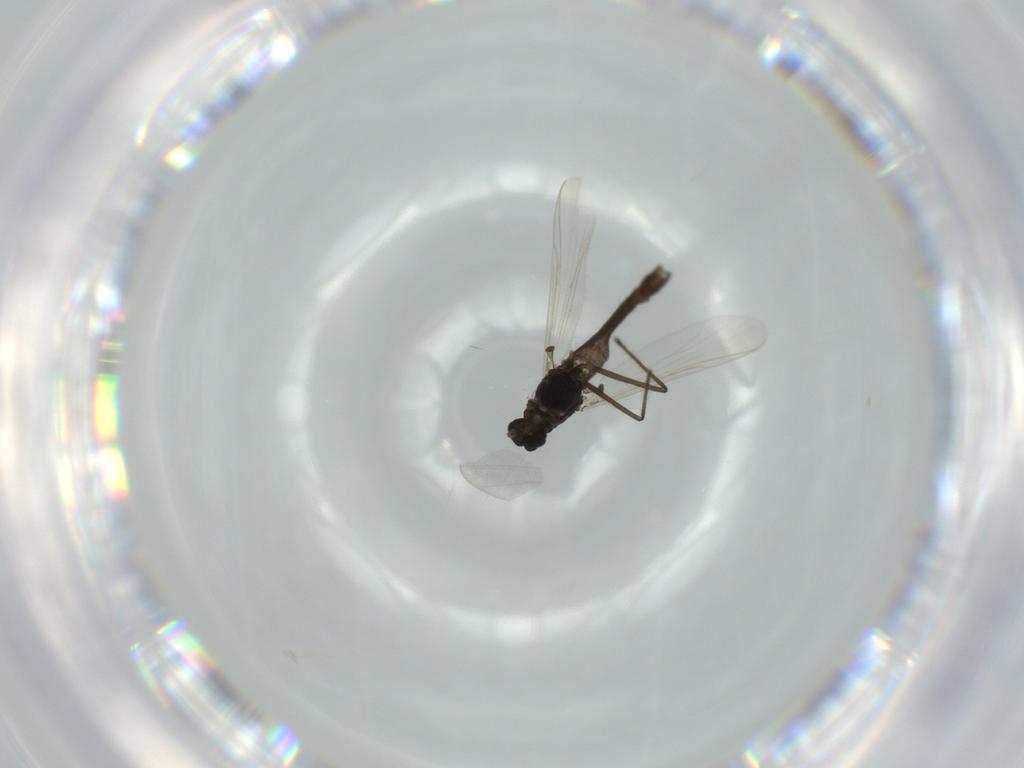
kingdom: Animalia
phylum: Arthropoda
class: Insecta
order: Diptera
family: Chironomidae
